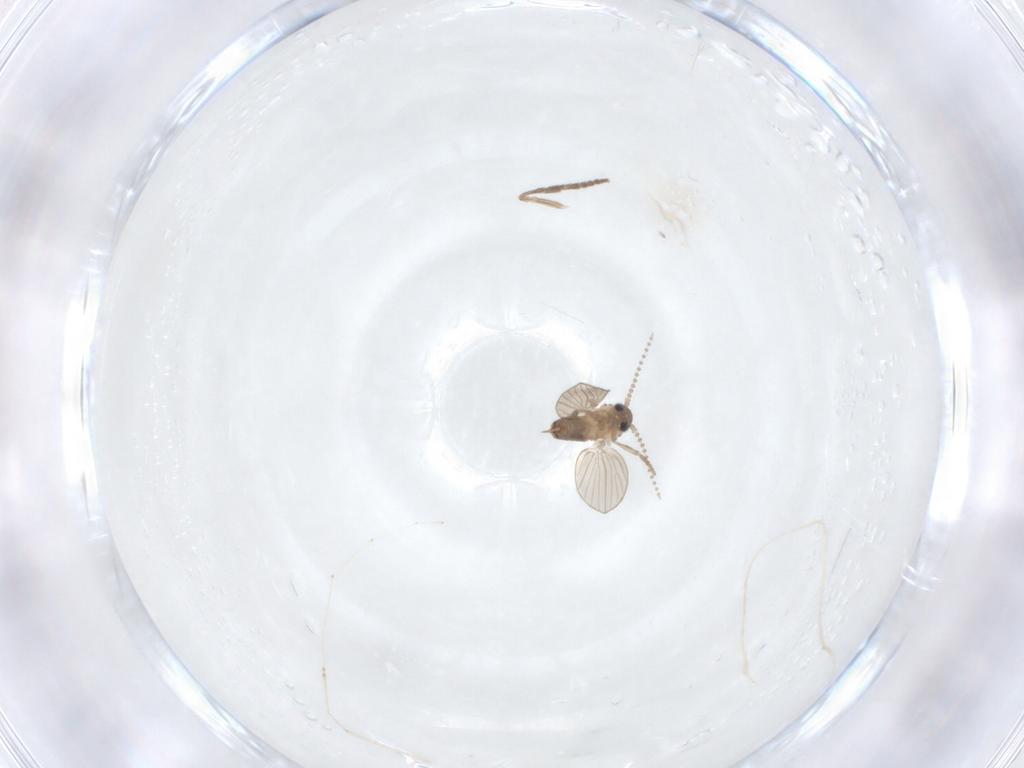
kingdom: Animalia
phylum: Arthropoda
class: Insecta
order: Diptera
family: Psychodidae
